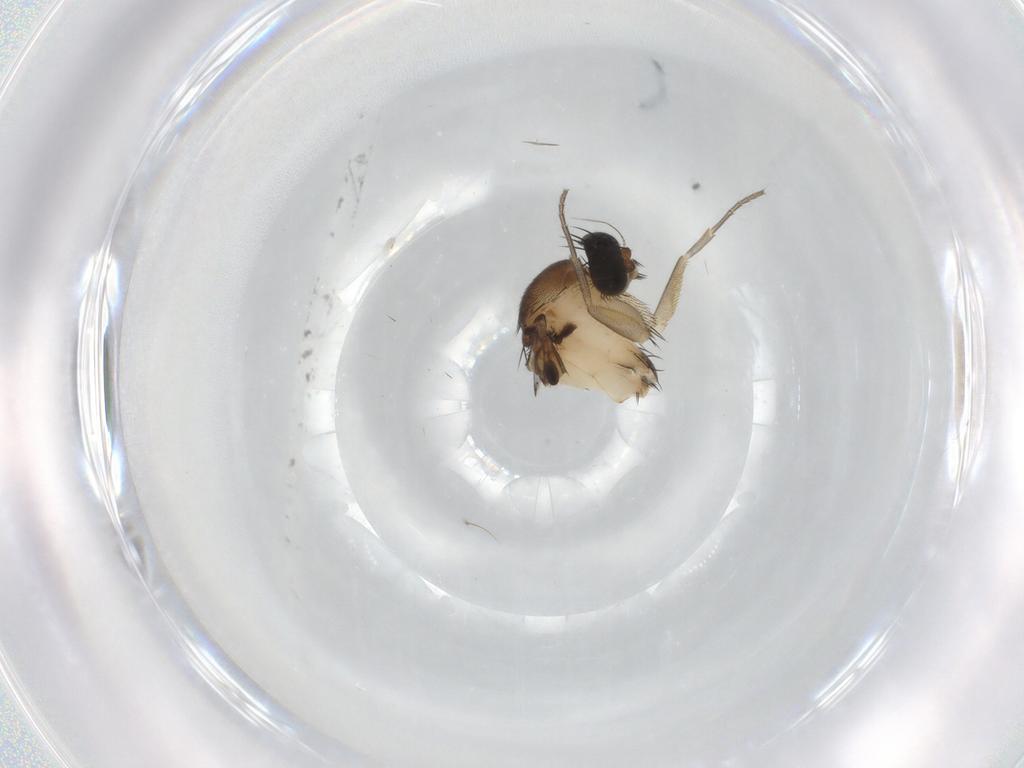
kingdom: Animalia
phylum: Arthropoda
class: Insecta
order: Diptera
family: Phoridae
